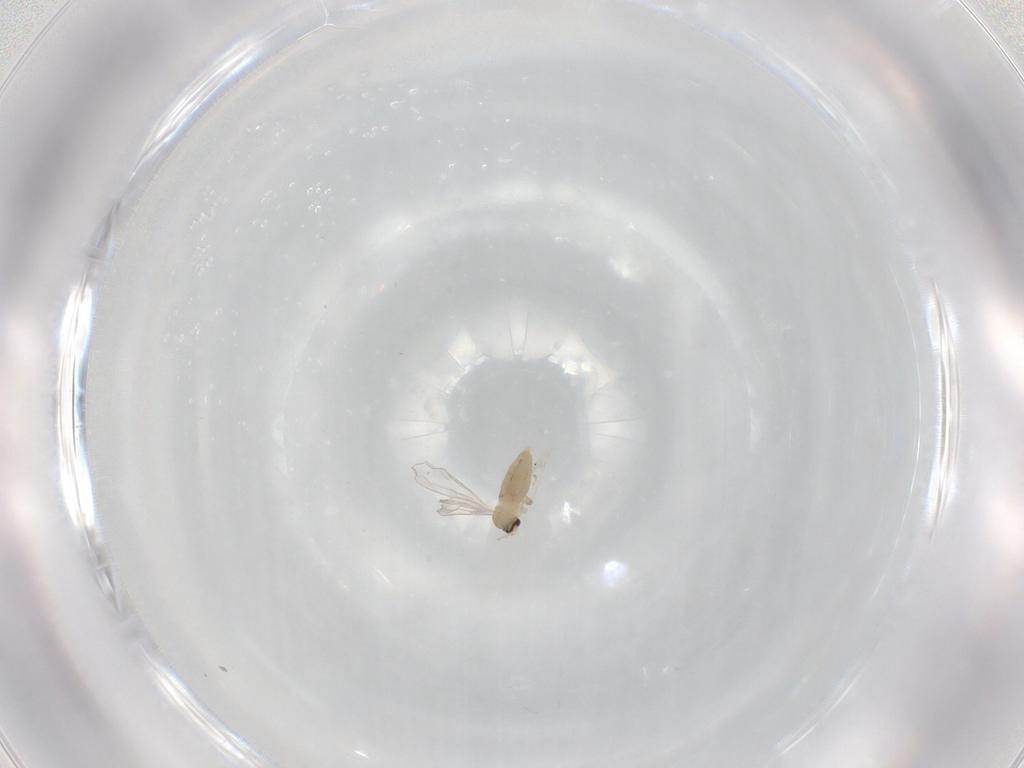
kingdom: Animalia
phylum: Arthropoda
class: Insecta
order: Diptera
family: Cecidomyiidae
